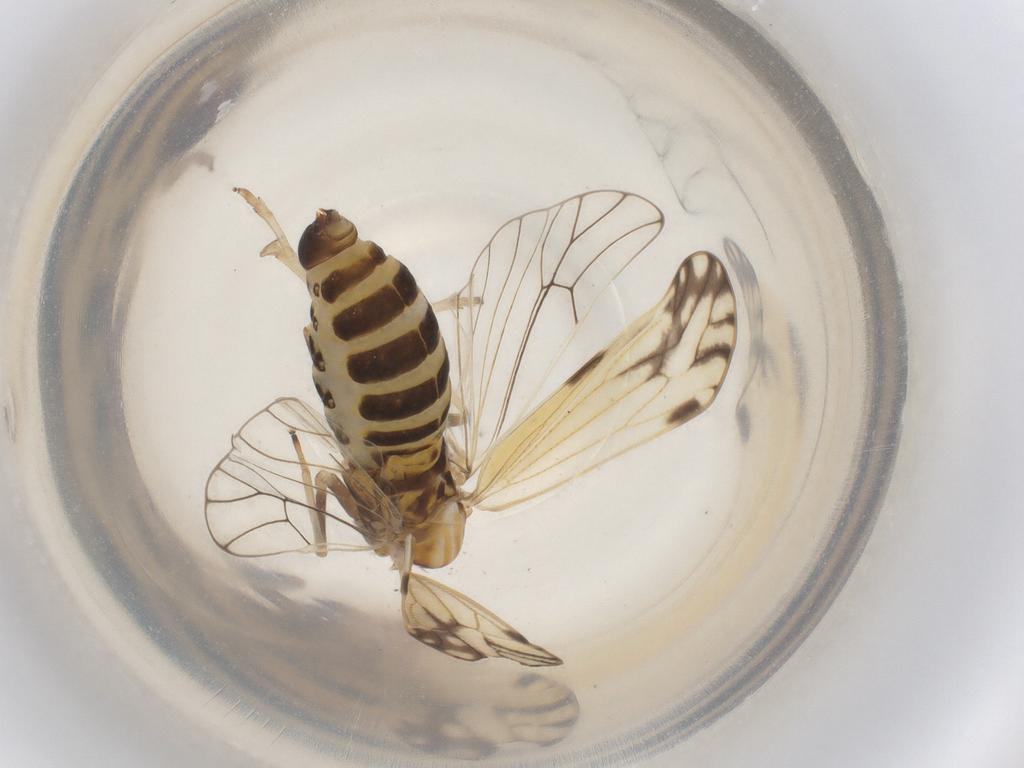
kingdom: Animalia
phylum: Arthropoda
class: Insecta
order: Hemiptera
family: Delphacidae
